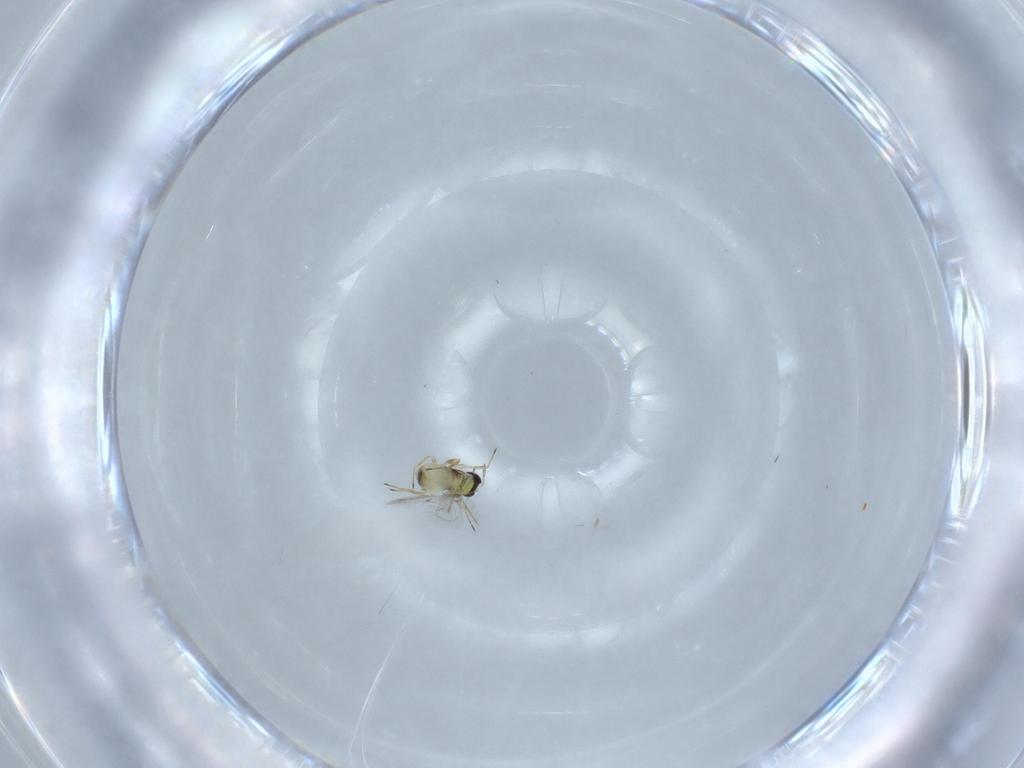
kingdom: Animalia
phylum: Arthropoda
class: Insecta
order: Hymenoptera
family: Trichogrammatidae
